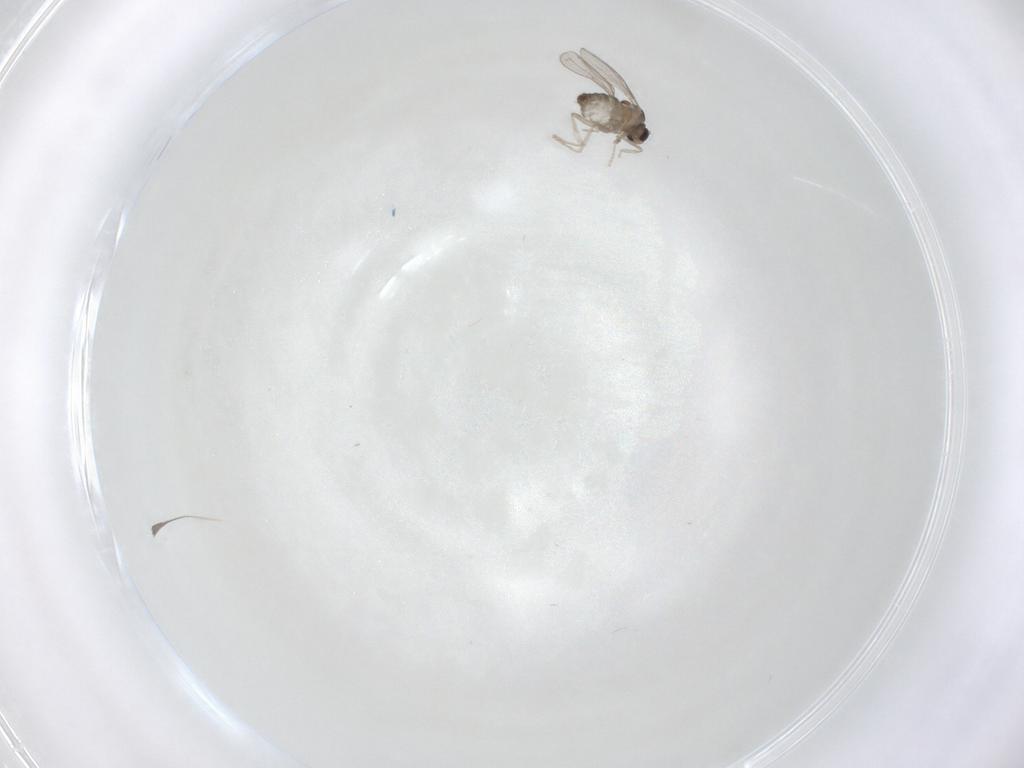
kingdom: Animalia
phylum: Arthropoda
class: Insecta
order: Diptera
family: Cecidomyiidae
